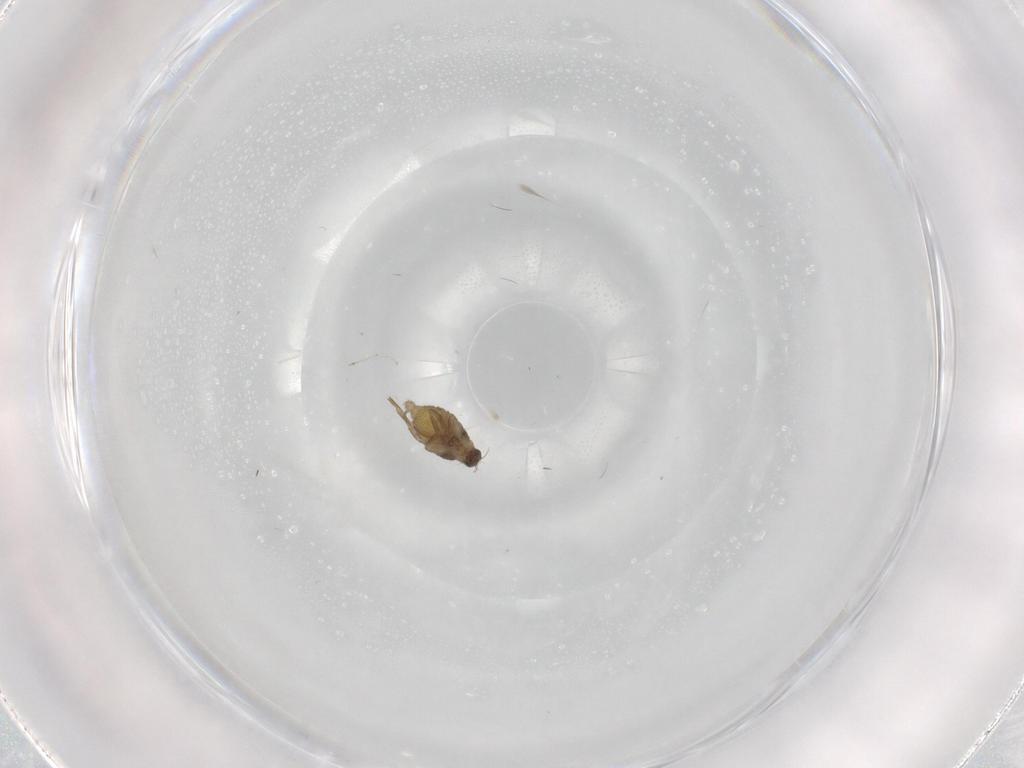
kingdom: Animalia
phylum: Arthropoda
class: Insecta
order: Diptera
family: Cecidomyiidae
